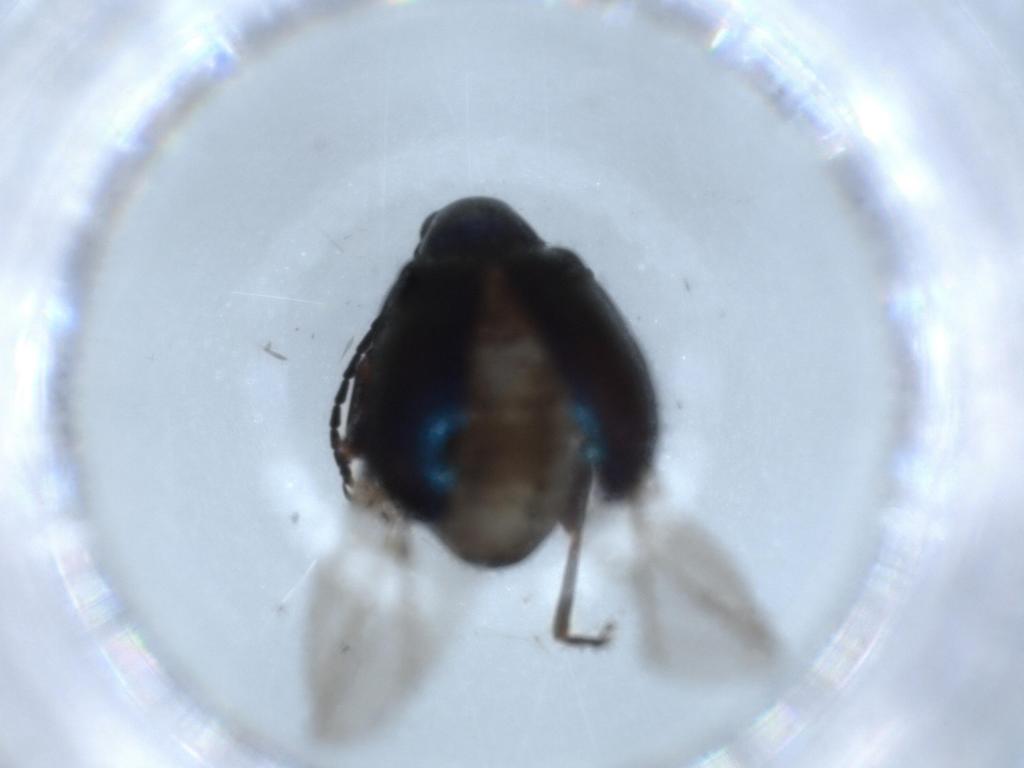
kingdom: Animalia
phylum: Arthropoda
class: Insecta
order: Coleoptera
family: Chrysomelidae
